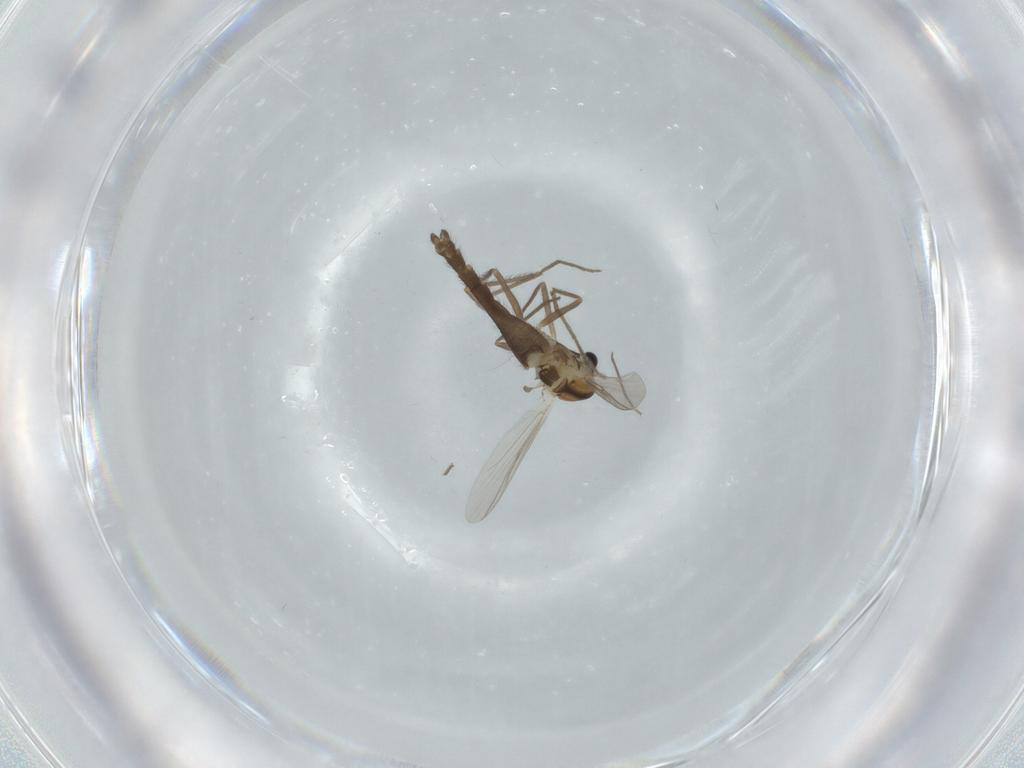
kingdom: Animalia
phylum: Arthropoda
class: Insecta
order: Diptera
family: Chironomidae
